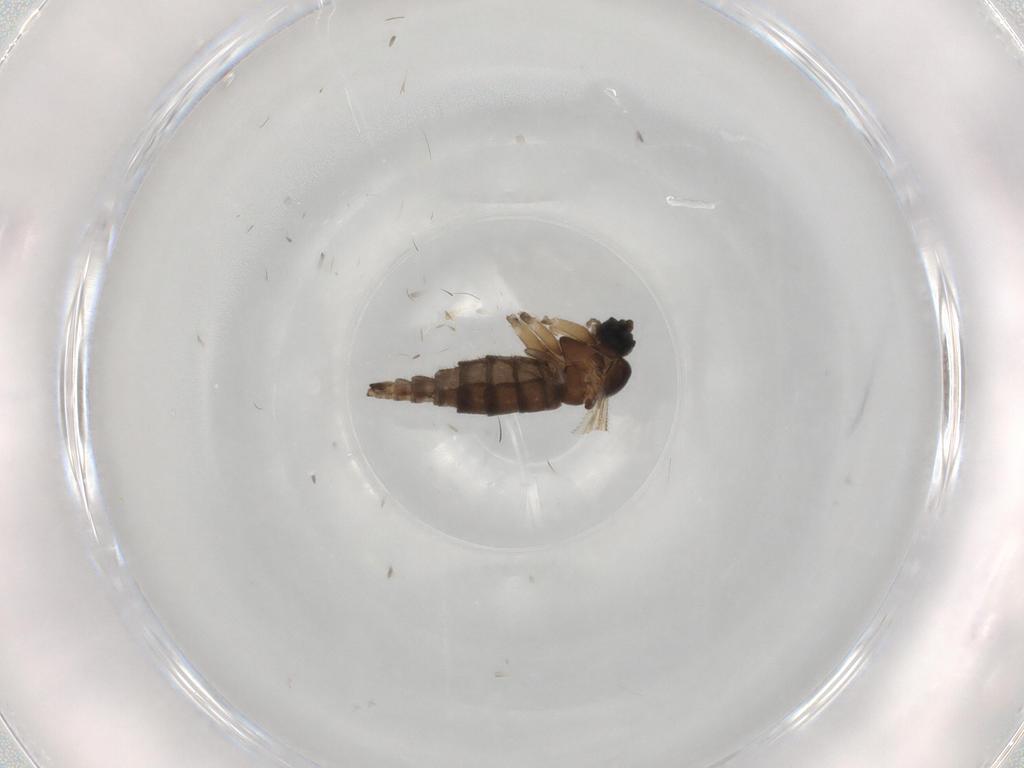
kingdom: Animalia
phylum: Arthropoda
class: Insecta
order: Diptera
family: Sciaridae
